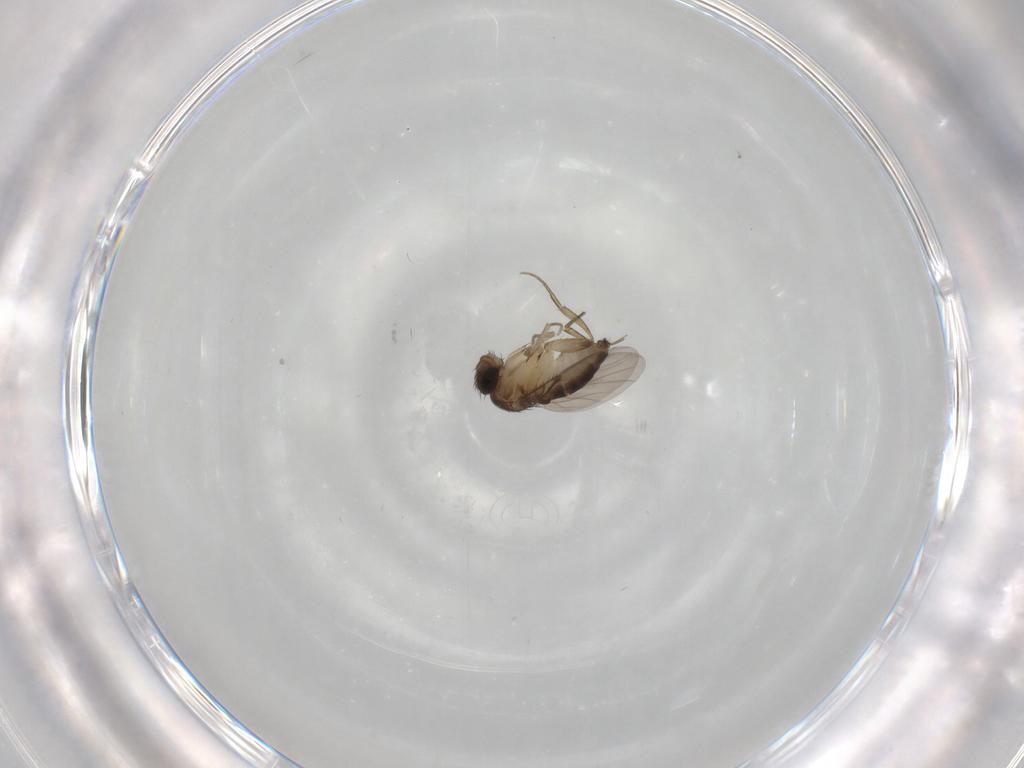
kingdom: Animalia
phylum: Arthropoda
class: Insecta
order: Diptera
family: Phoridae
